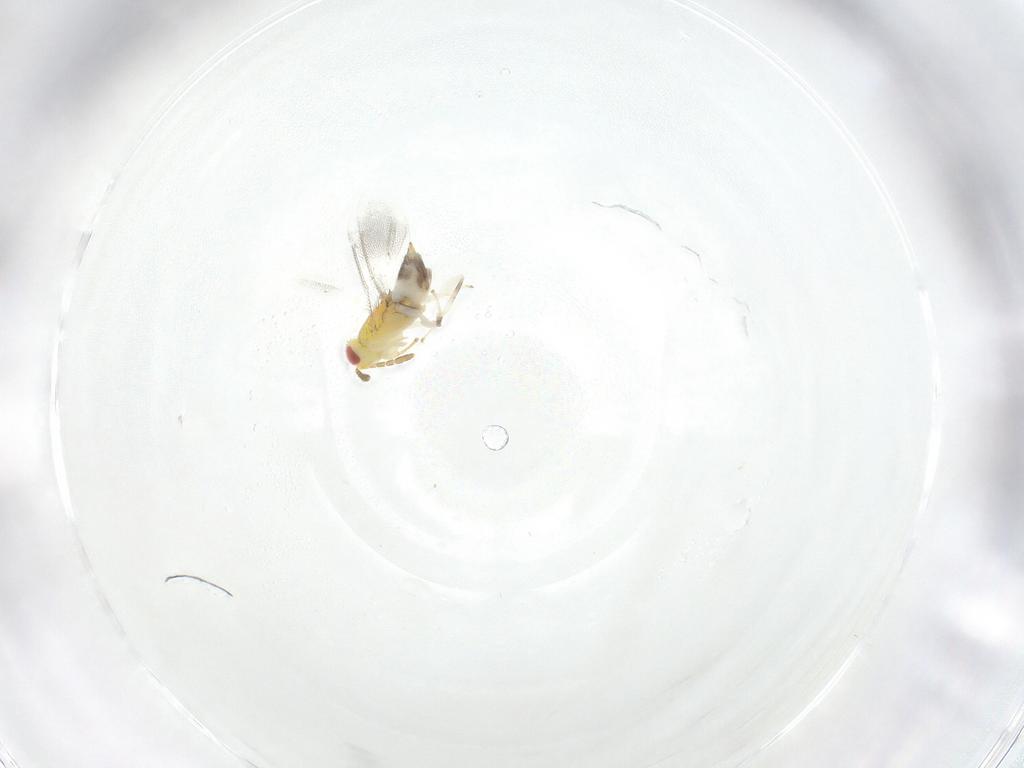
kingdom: Animalia
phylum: Arthropoda
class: Insecta
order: Hymenoptera
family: Aphelinidae
